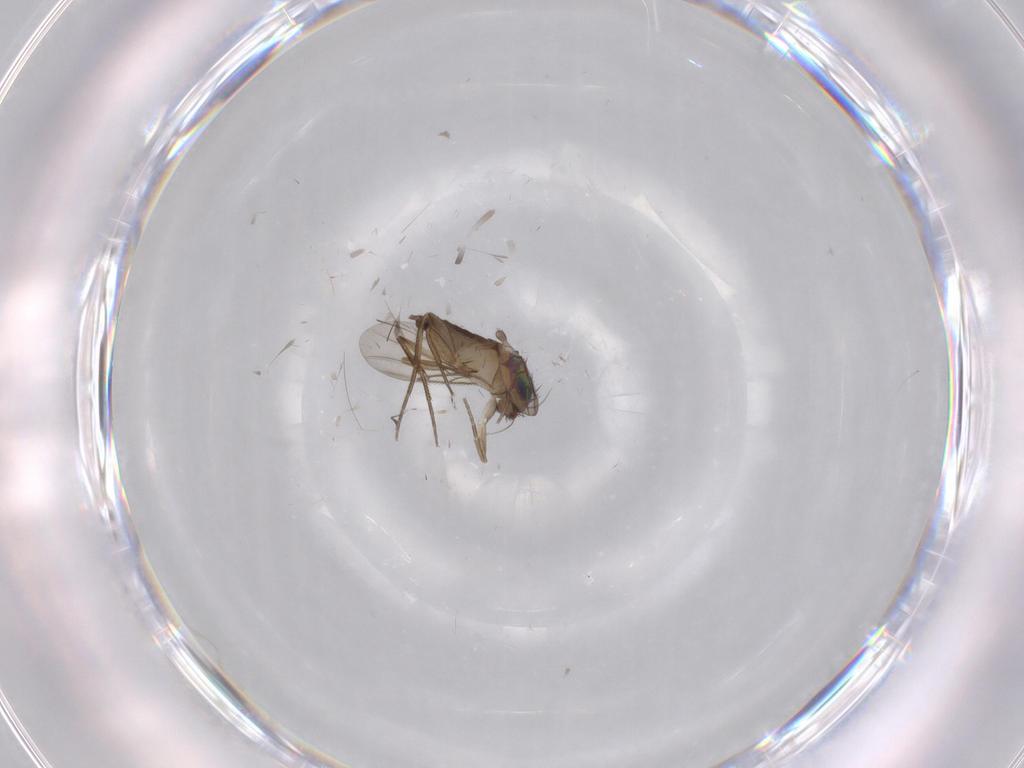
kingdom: Animalia
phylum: Arthropoda
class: Insecta
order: Diptera
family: Phoridae
